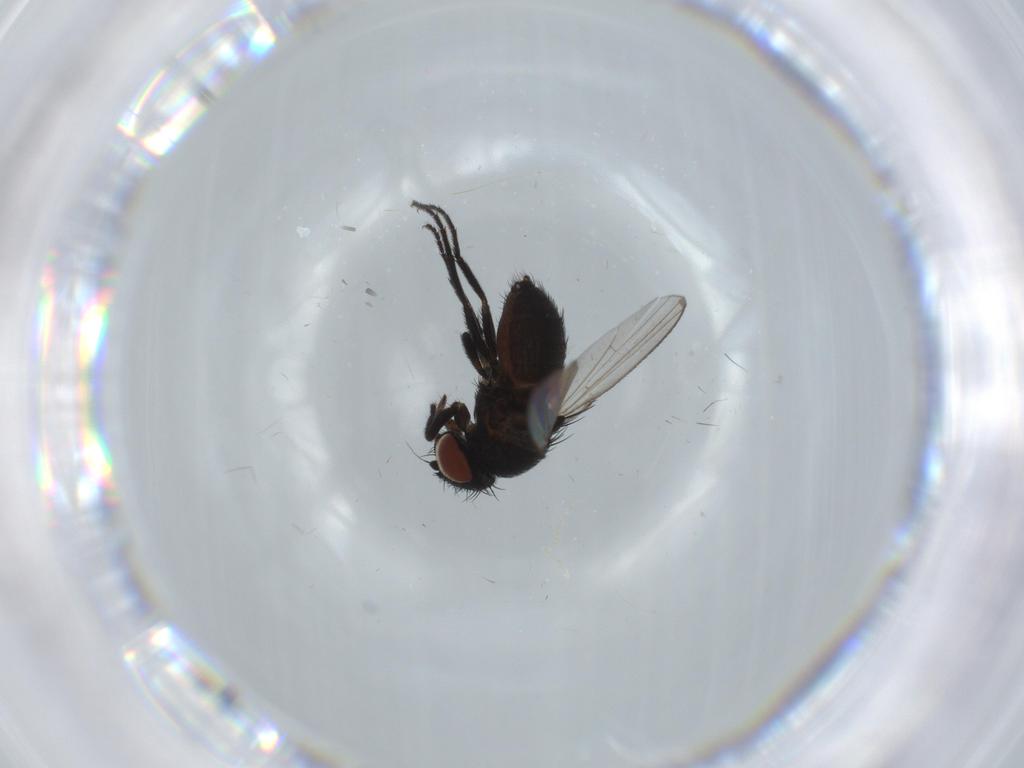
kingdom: Animalia
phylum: Arthropoda
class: Insecta
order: Diptera
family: Milichiidae
